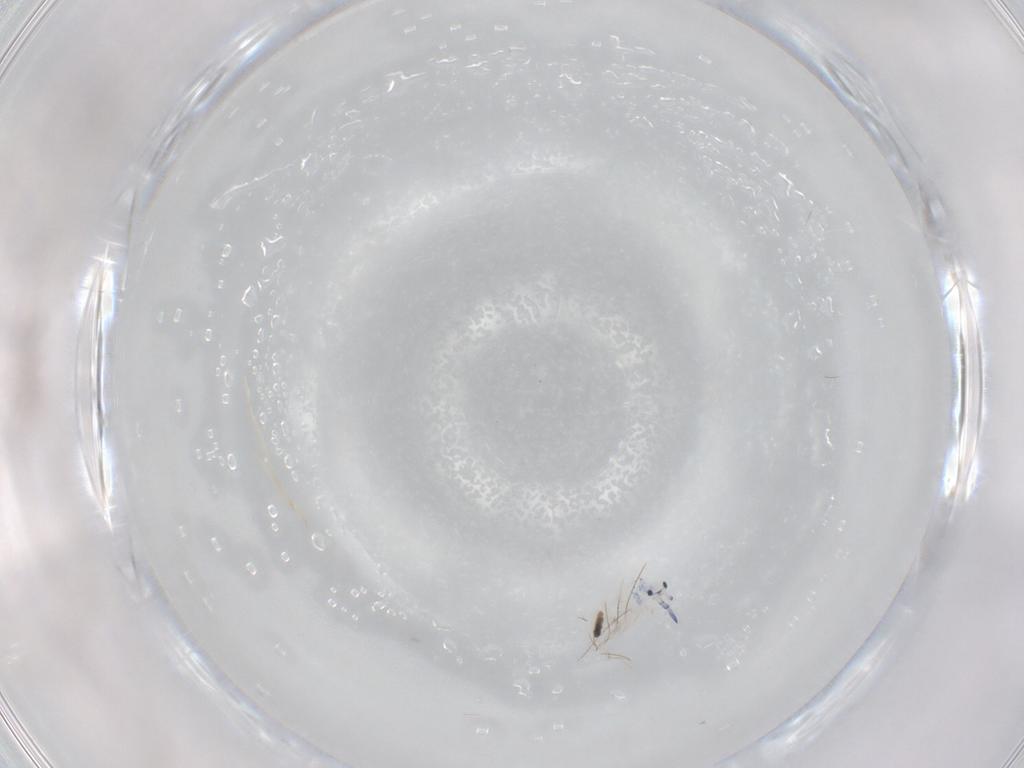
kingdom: Animalia
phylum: Arthropoda
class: Collembola
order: Entomobryomorpha
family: Entomobryidae
